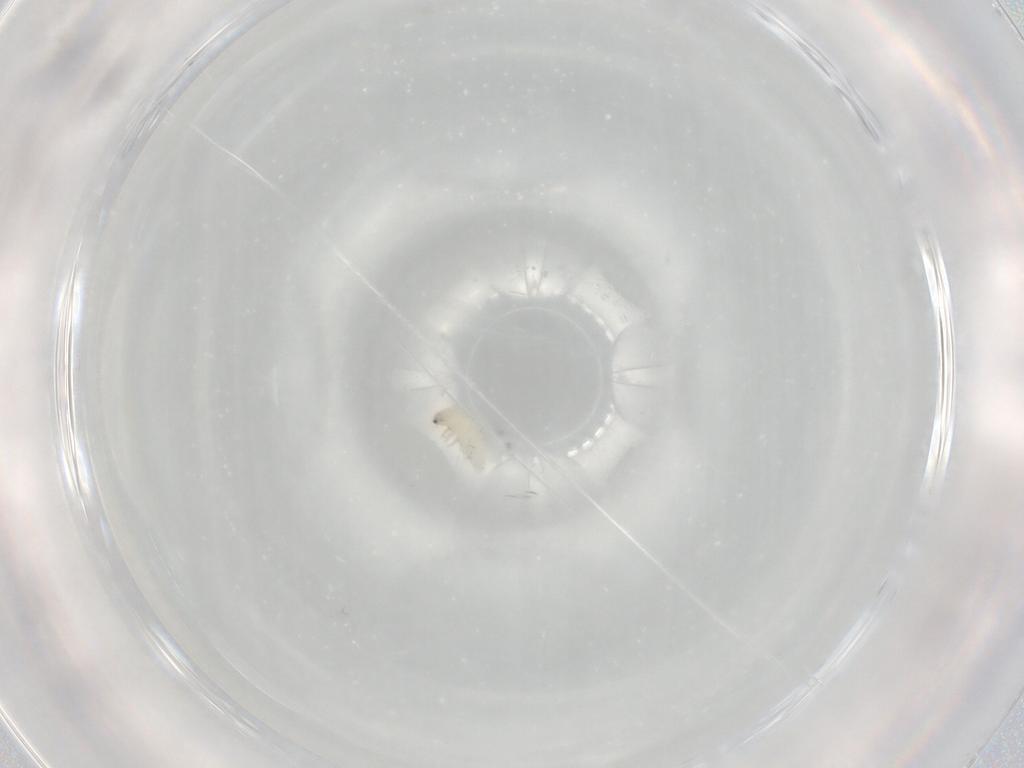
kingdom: Animalia
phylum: Arthropoda
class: Insecta
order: Coleoptera
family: Chrysomelidae
